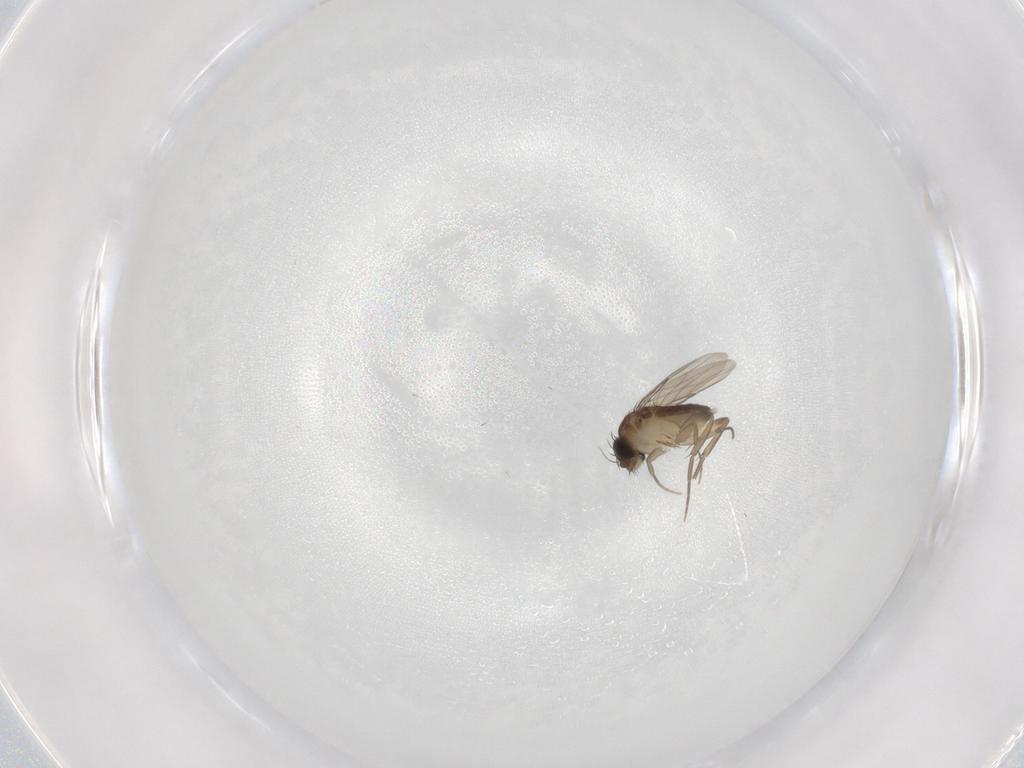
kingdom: Animalia
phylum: Arthropoda
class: Insecta
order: Diptera
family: Phoridae
